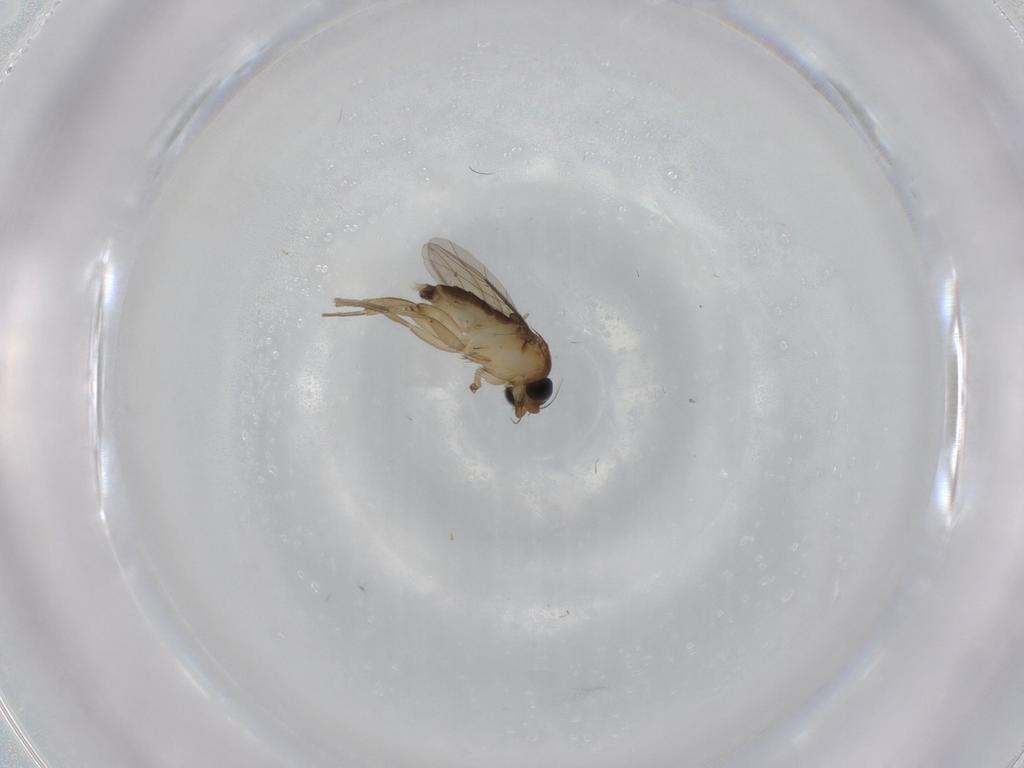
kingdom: Animalia
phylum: Arthropoda
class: Insecta
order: Diptera
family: Phoridae
